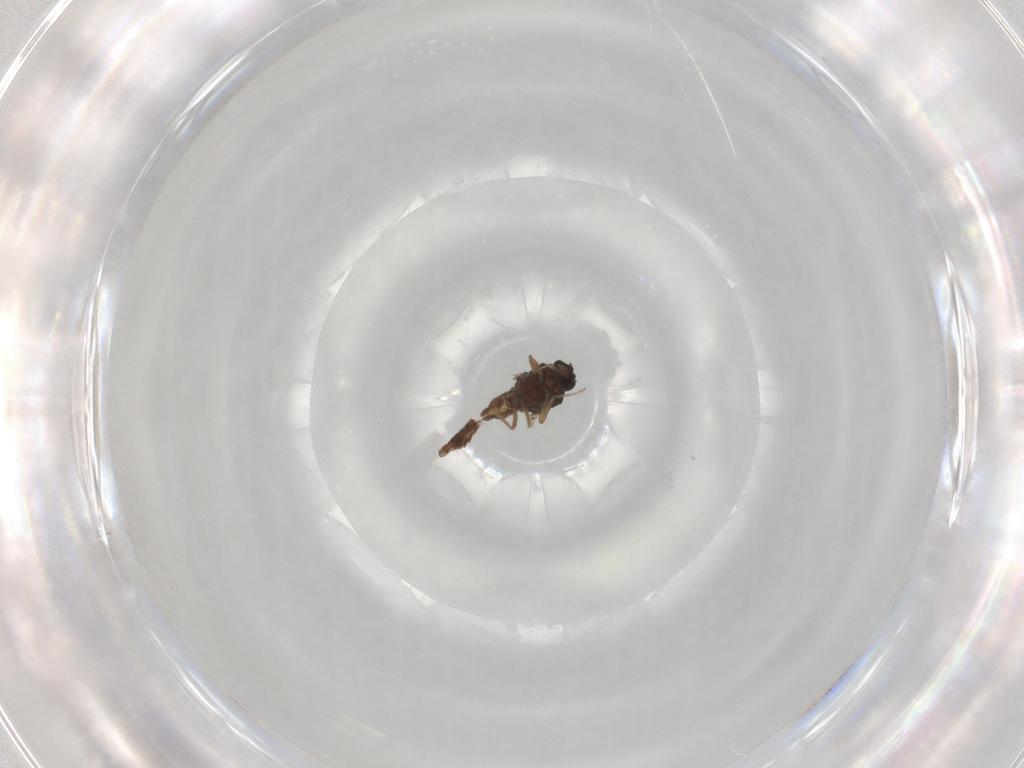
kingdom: Animalia
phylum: Arthropoda
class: Insecta
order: Diptera
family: Ceratopogonidae
